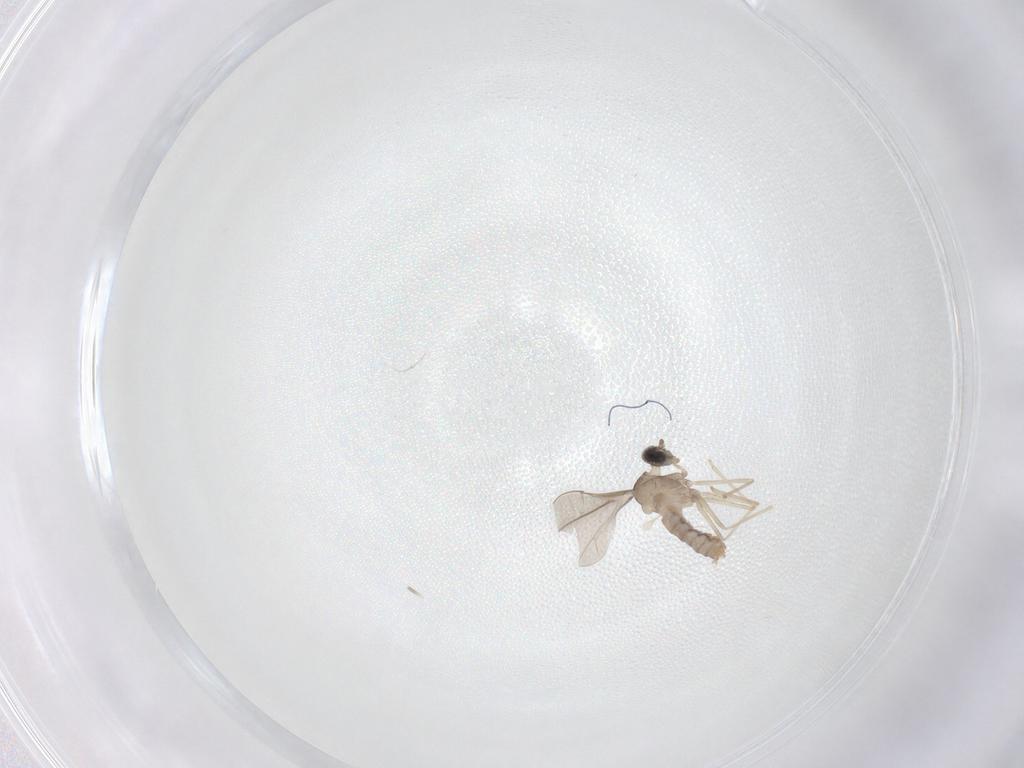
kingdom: Animalia
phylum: Arthropoda
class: Insecta
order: Diptera
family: Cecidomyiidae
